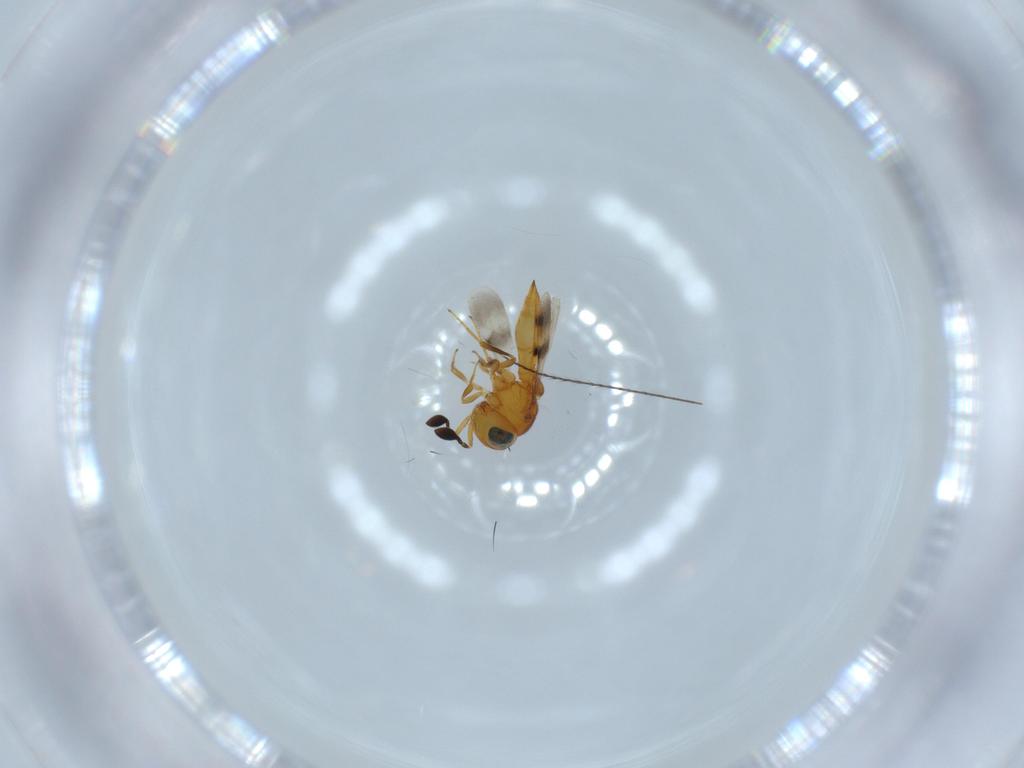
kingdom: Animalia
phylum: Arthropoda
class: Insecta
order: Hymenoptera
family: Scelionidae
